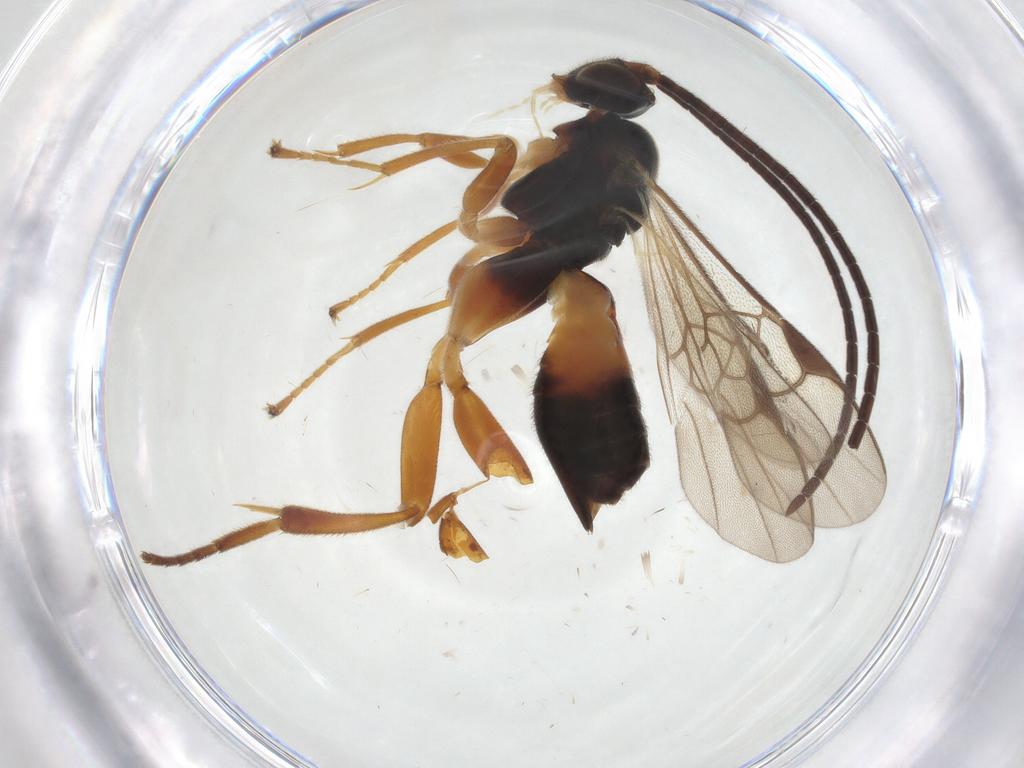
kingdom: Animalia
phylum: Arthropoda
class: Insecta
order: Hymenoptera
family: Braconidae
